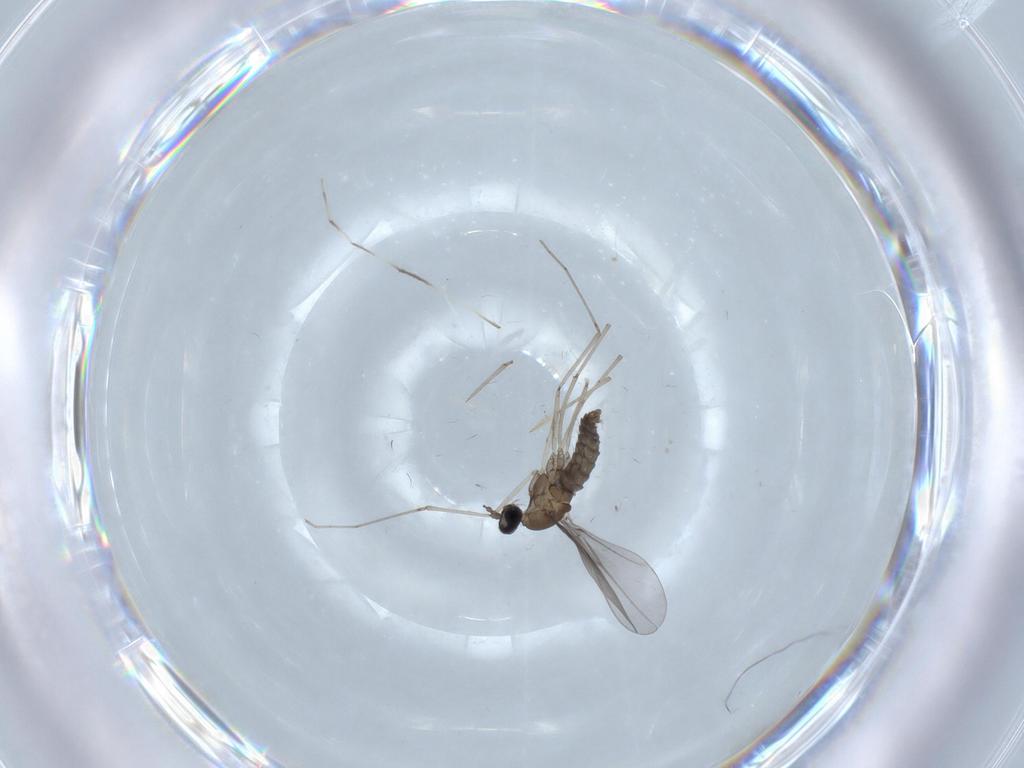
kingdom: Animalia
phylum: Arthropoda
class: Insecta
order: Diptera
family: Cecidomyiidae
